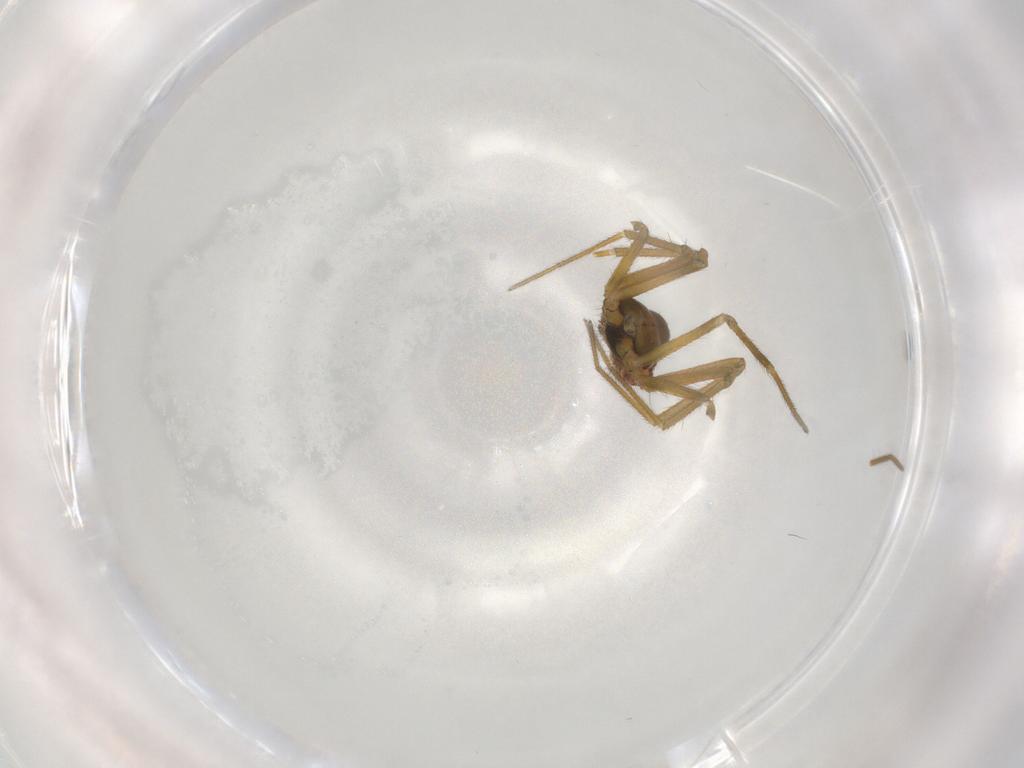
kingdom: Animalia
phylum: Arthropoda
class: Arachnida
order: Araneae
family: Linyphiidae
